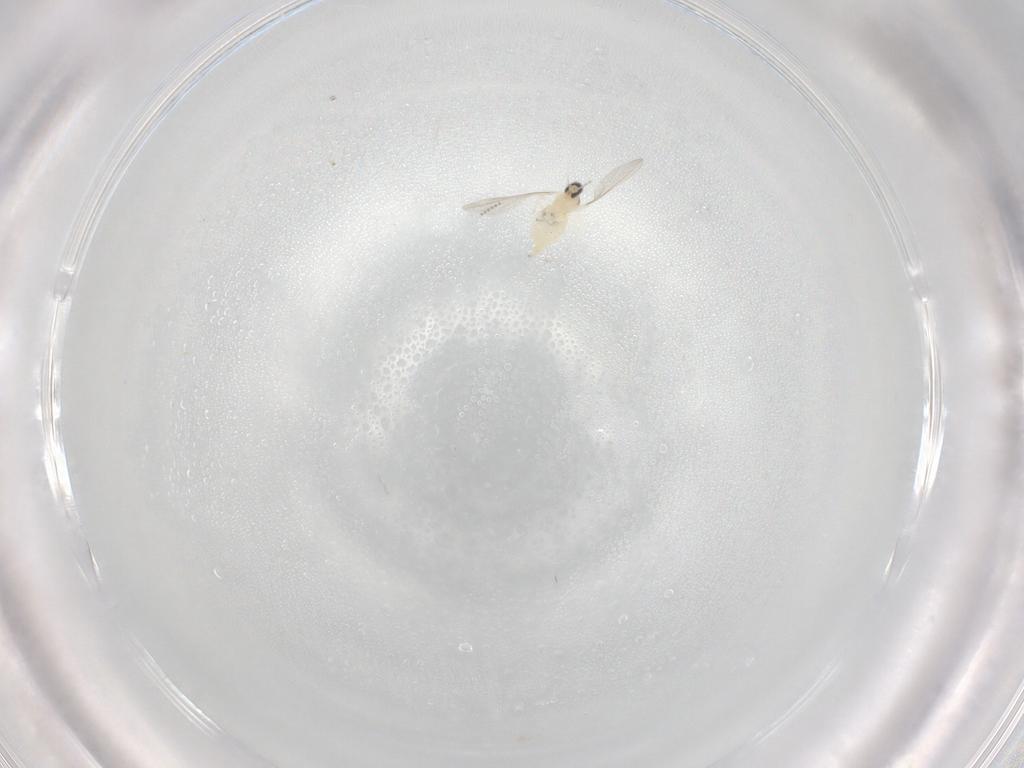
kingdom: Animalia
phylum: Arthropoda
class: Insecta
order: Diptera
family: Cecidomyiidae
